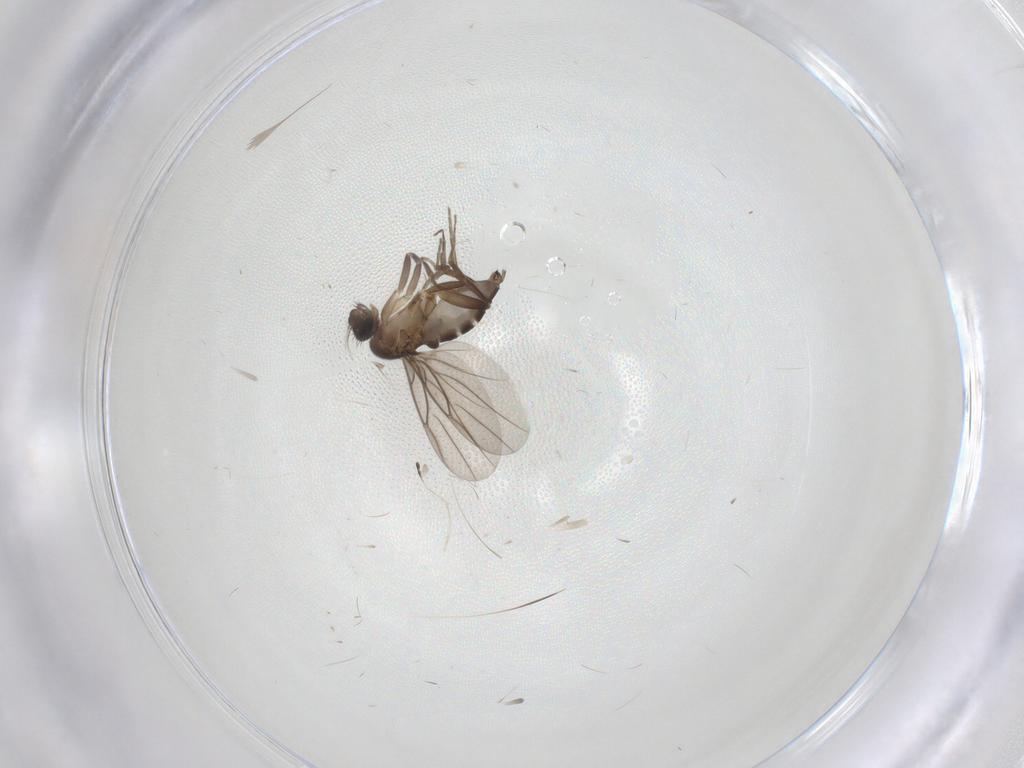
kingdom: Animalia
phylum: Arthropoda
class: Insecta
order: Diptera
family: Cecidomyiidae
